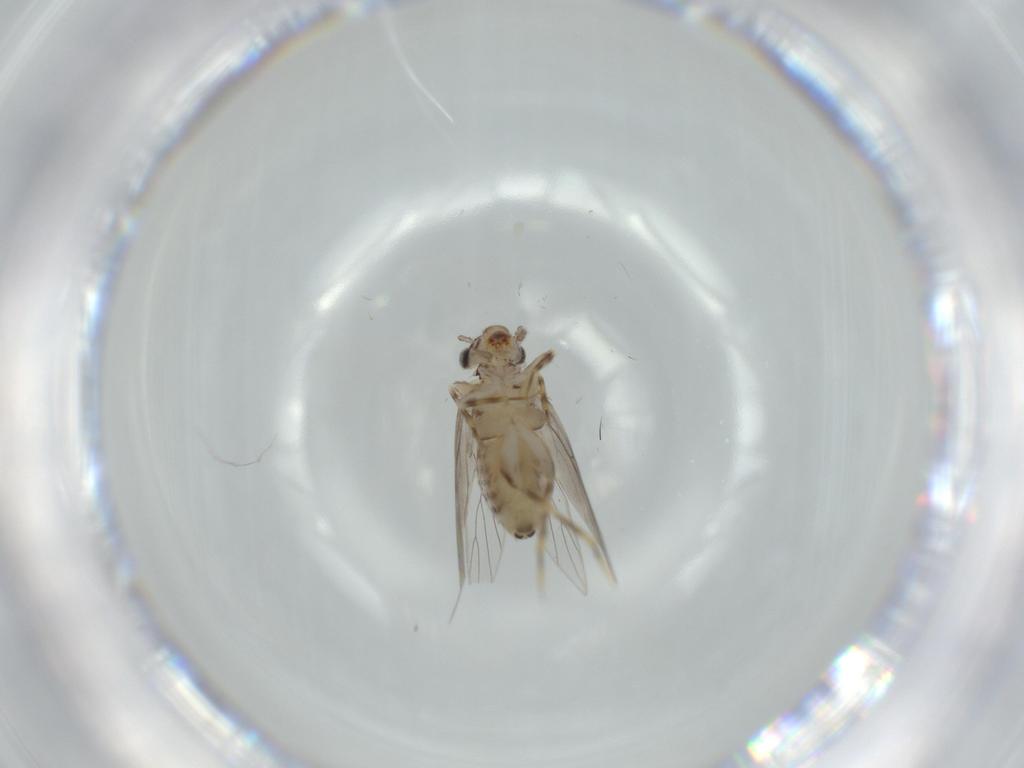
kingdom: Animalia
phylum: Arthropoda
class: Insecta
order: Psocodea
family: Lepidopsocidae
